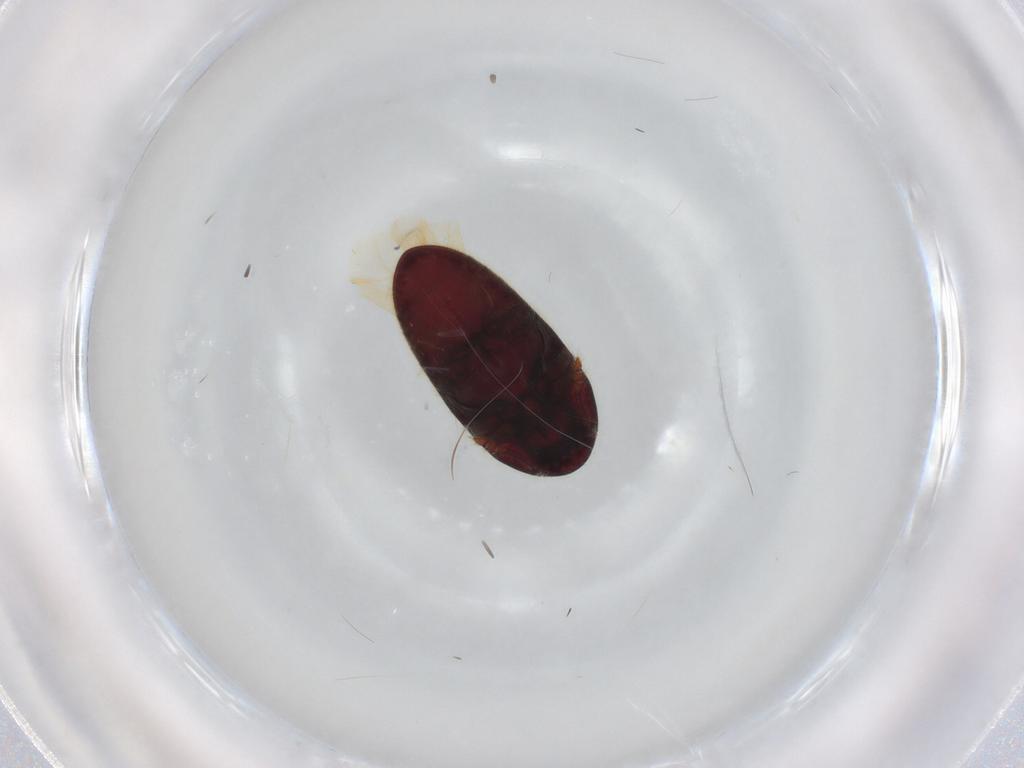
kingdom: Animalia
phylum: Arthropoda
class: Insecta
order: Coleoptera
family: Throscidae
